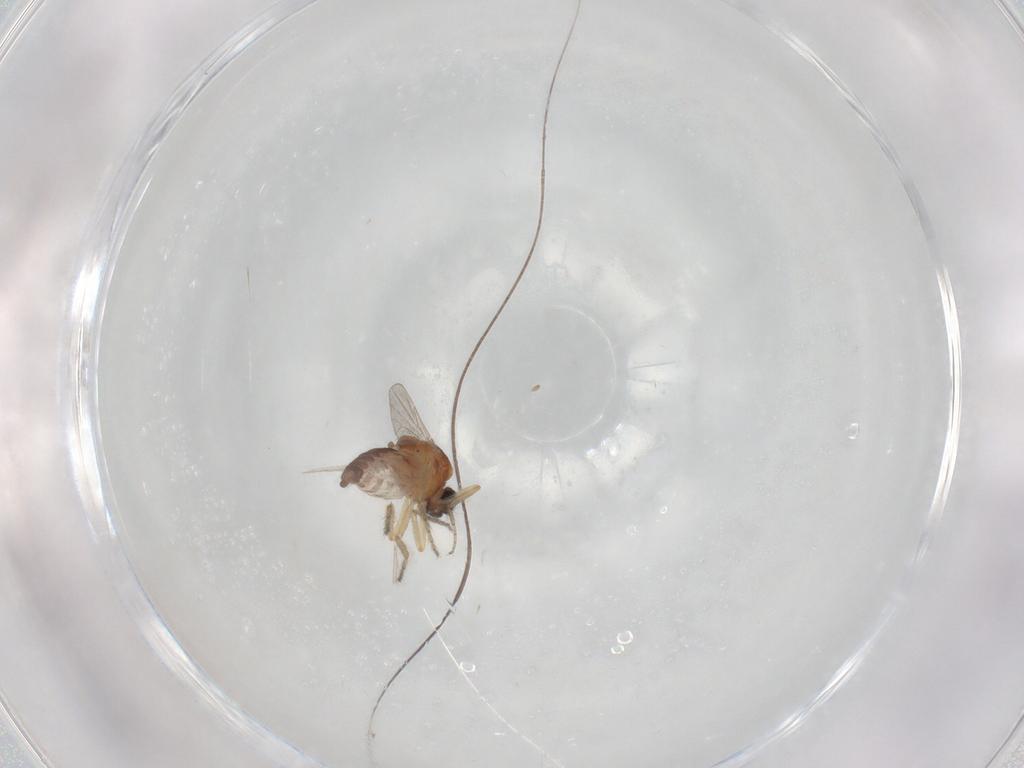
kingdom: Animalia
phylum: Arthropoda
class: Insecta
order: Diptera
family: Ceratopogonidae
